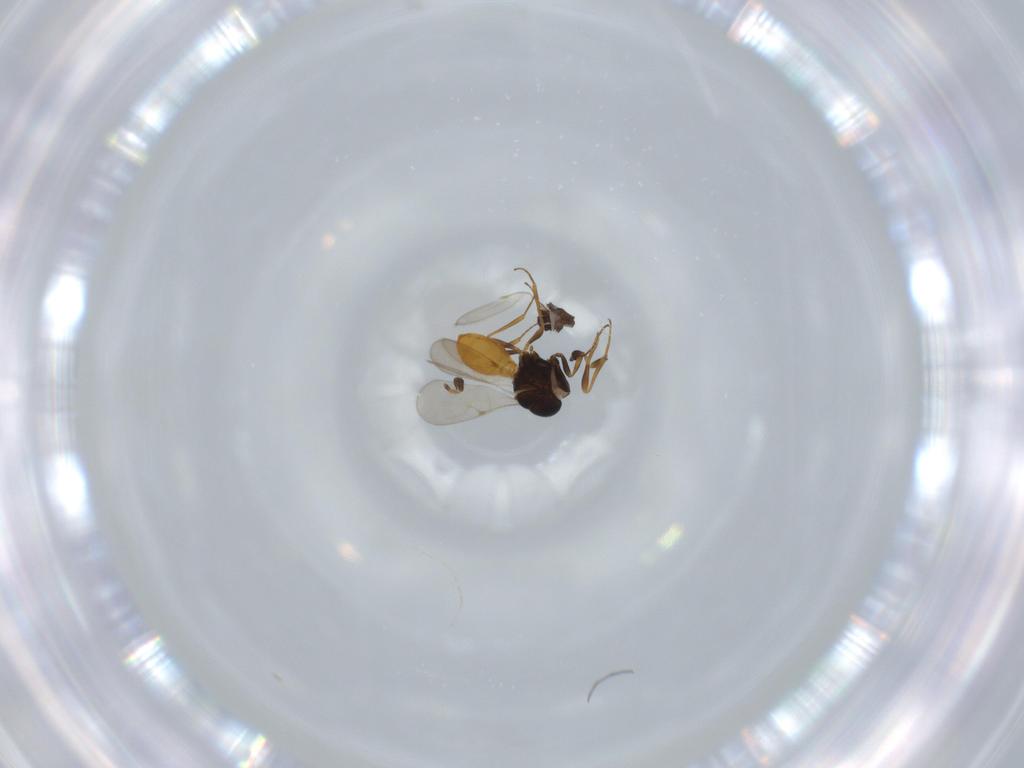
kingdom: Animalia
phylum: Arthropoda
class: Insecta
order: Hymenoptera
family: Scelionidae
